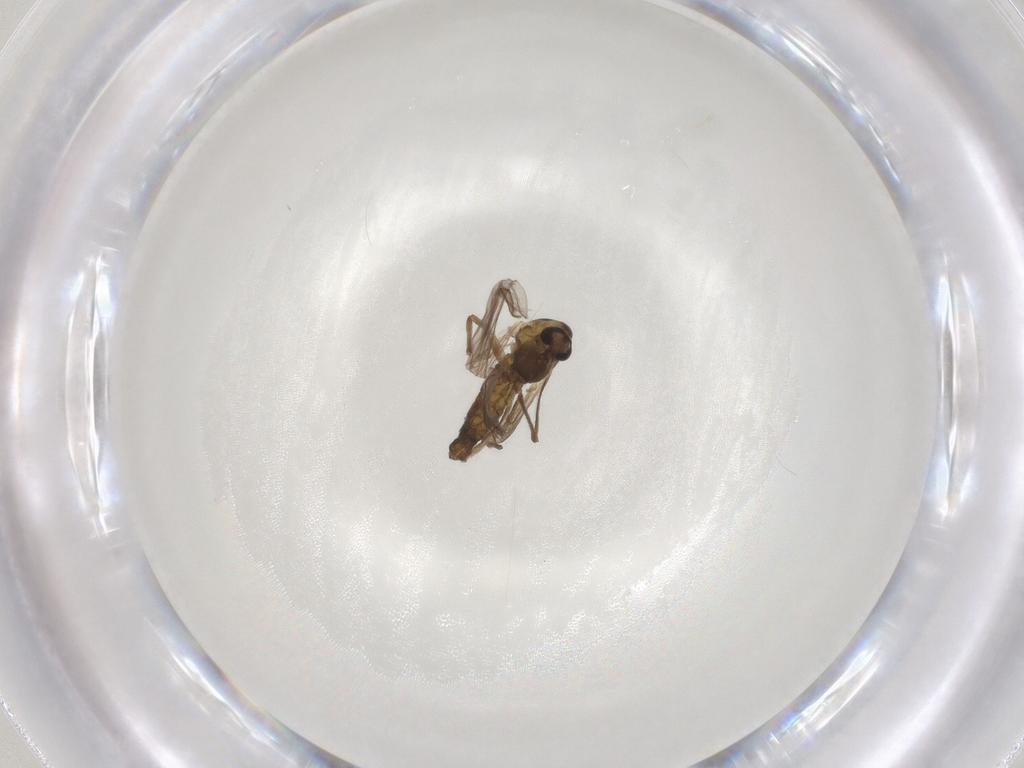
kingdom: Animalia
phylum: Arthropoda
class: Insecta
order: Diptera
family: Chironomidae
